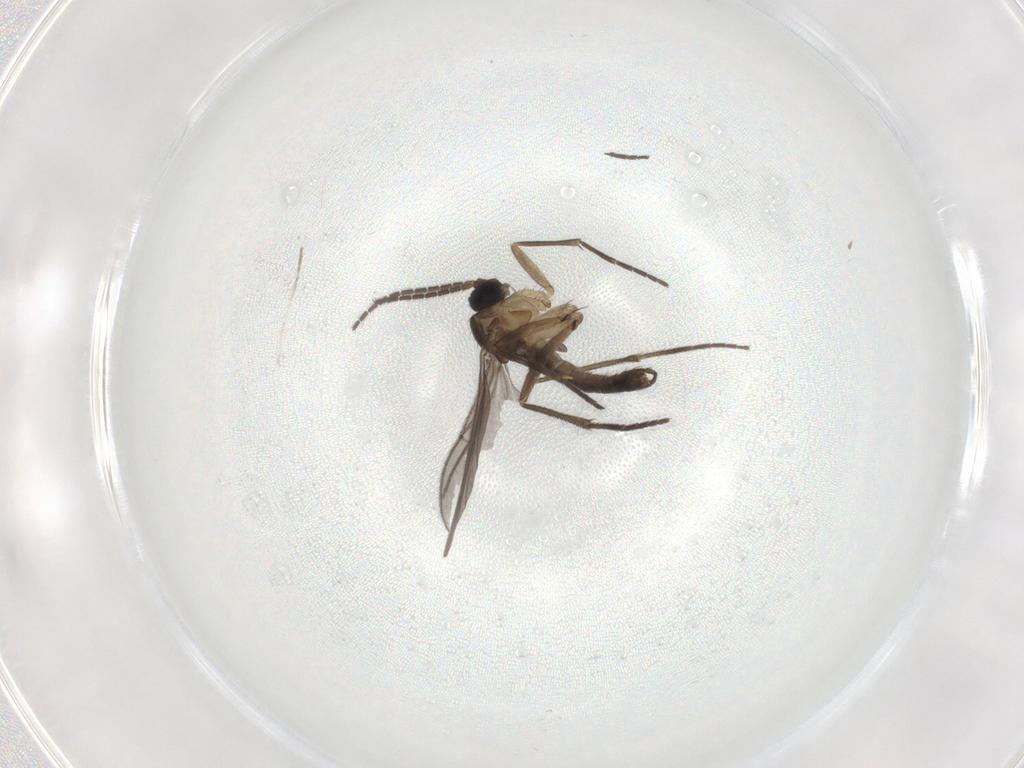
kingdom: Animalia
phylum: Arthropoda
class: Insecta
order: Diptera
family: Sciaridae
